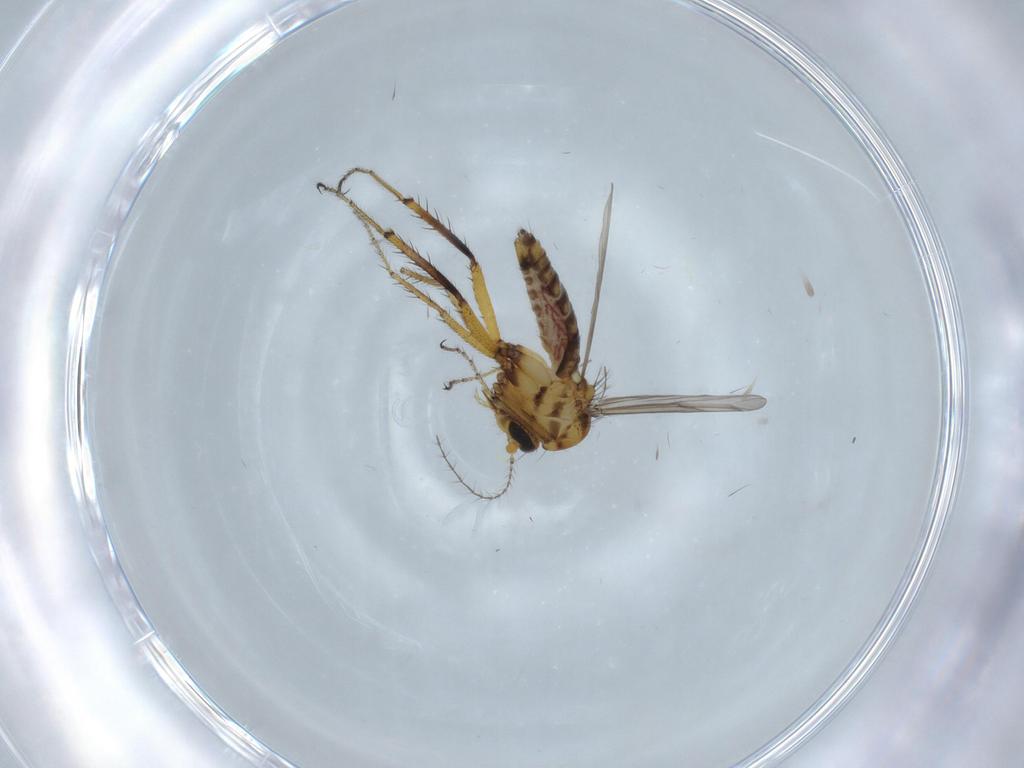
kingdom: Animalia
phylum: Arthropoda
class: Insecta
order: Diptera
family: Ceratopogonidae
